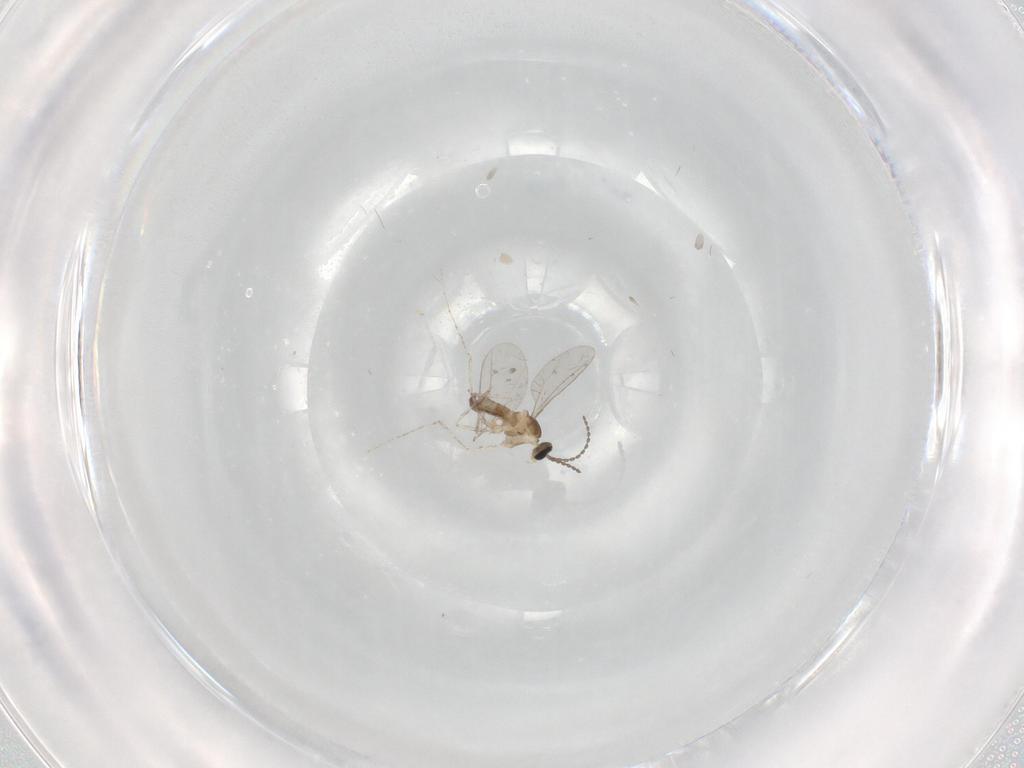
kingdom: Animalia
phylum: Arthropoda
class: Insecta
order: Diptera
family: Cecidomyiidae
